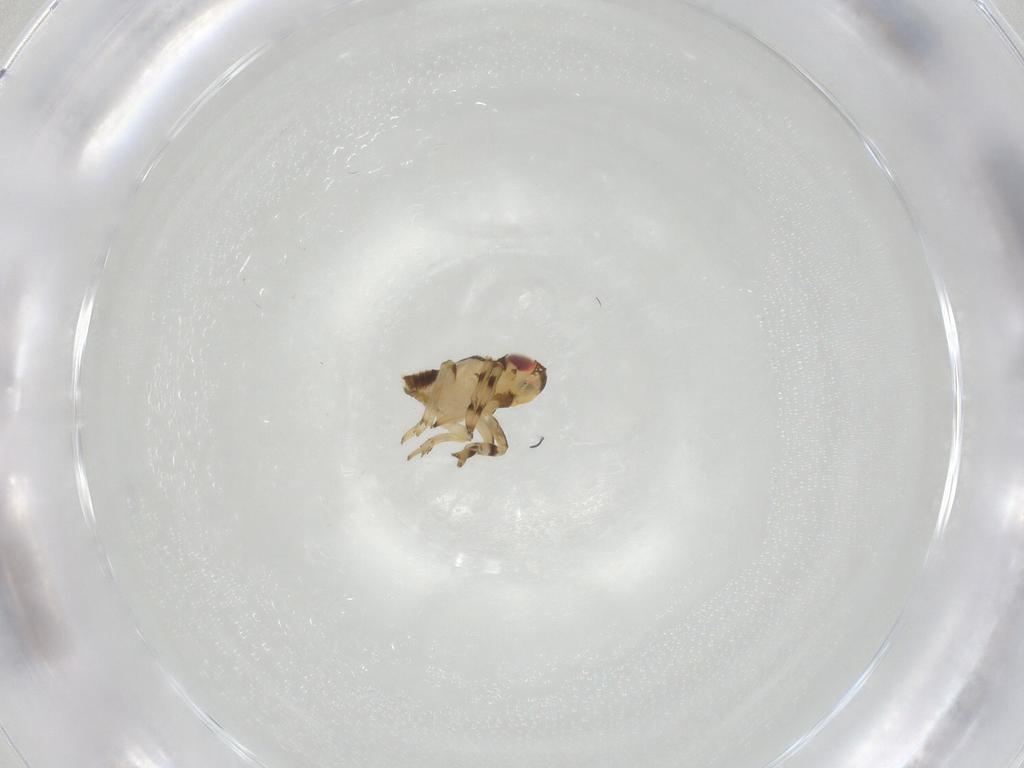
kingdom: Animalia
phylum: Arthropoda
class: Insecta
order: Hemiptera
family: Issidae
